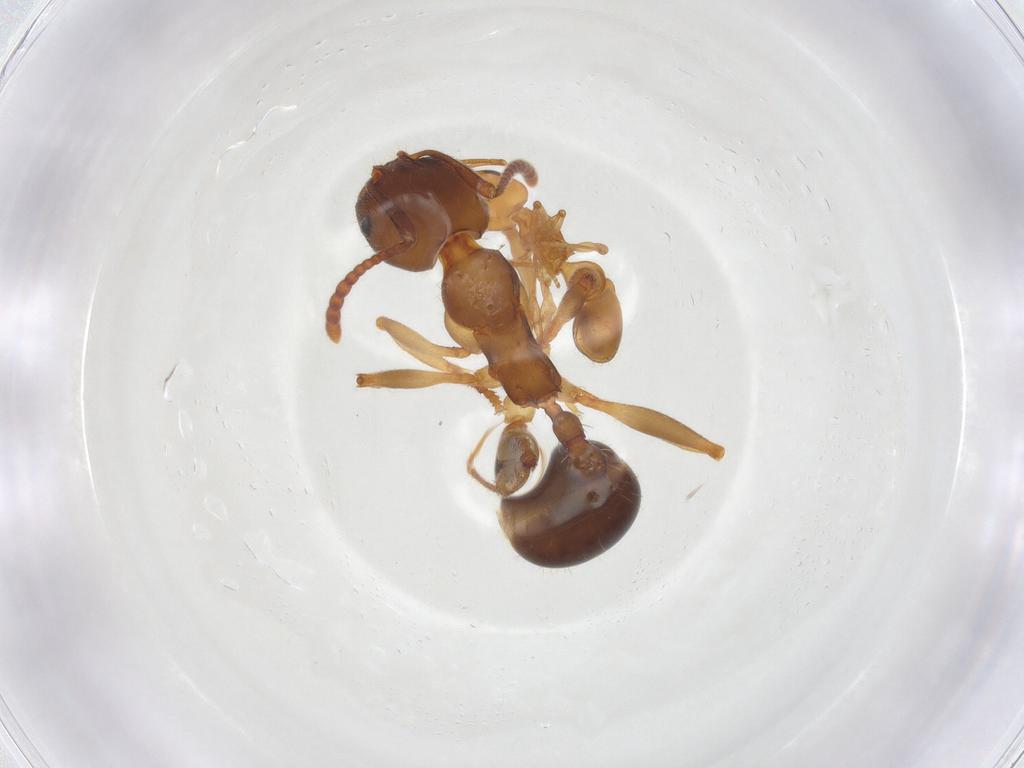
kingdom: Animalia
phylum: Arthropoda
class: Insecta
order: Hymenoptera
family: Formicidae
